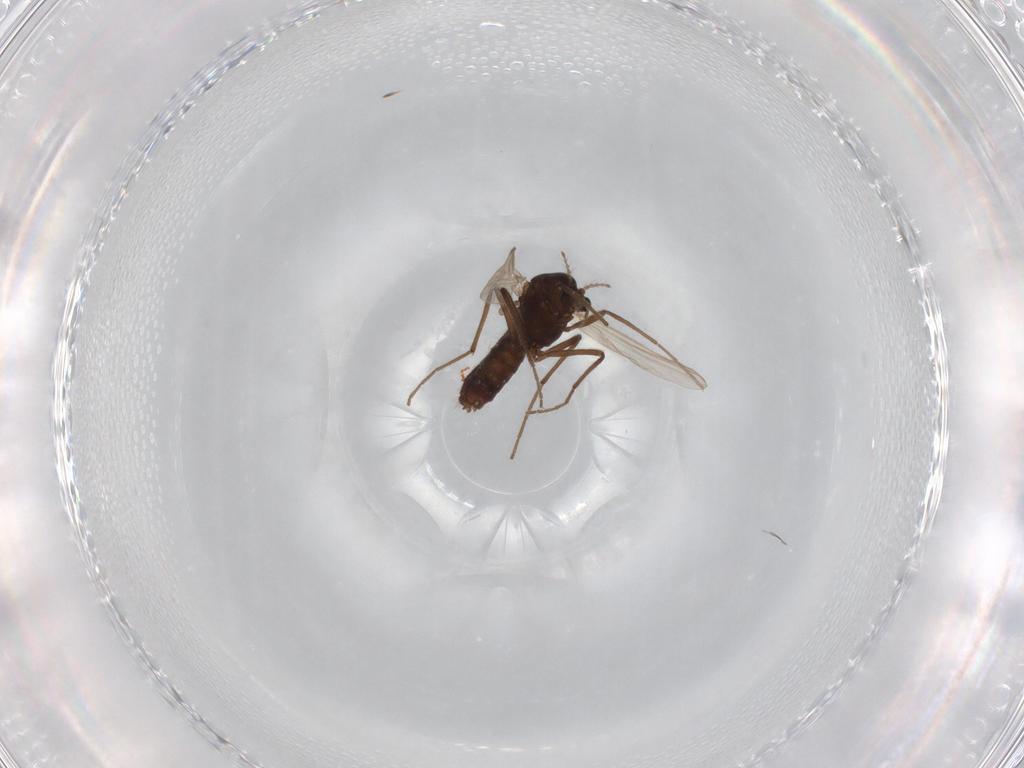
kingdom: Animalia
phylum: Arthropoda
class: Insecta
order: Diptera
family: Chironomidae
